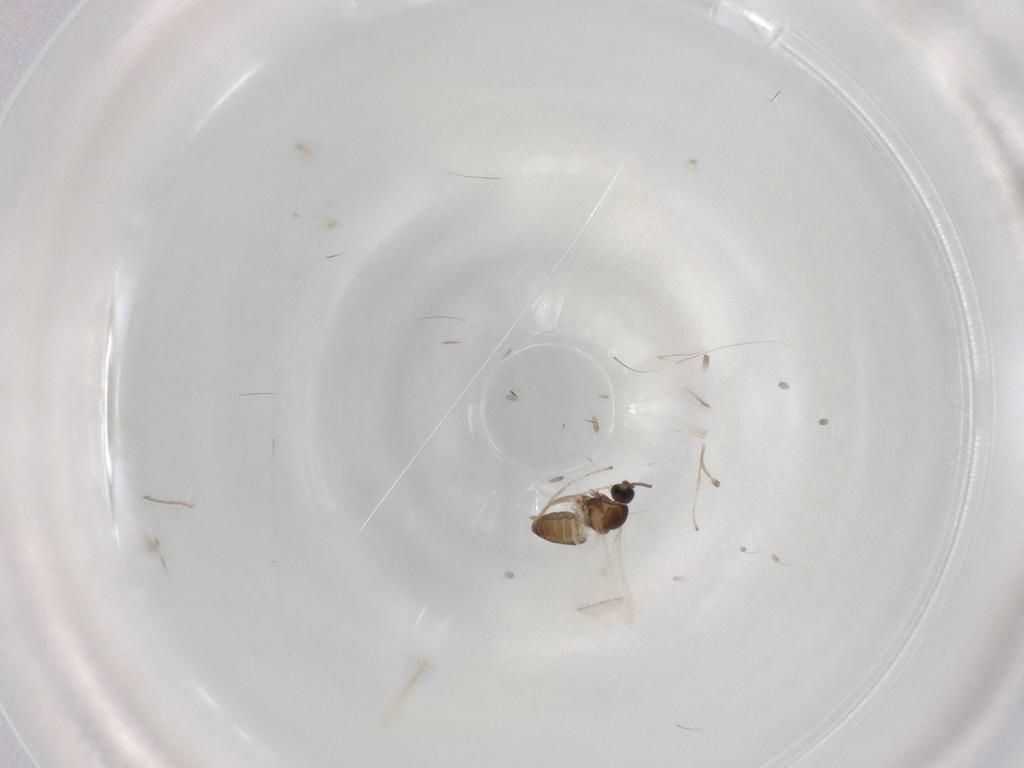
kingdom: Animalia
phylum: Arthropoda
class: Insecta
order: Diptera
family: Cecidomyiidae
